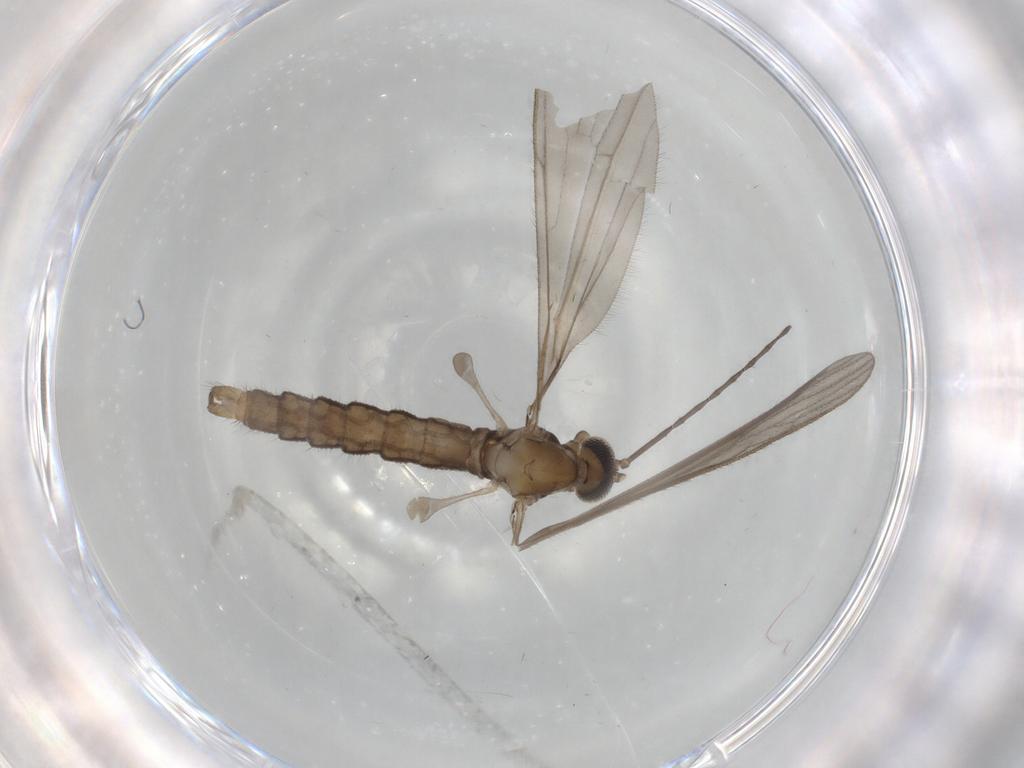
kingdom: Animalia
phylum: Arthropoda
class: Insecta
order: Diptera
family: Limoniidae
